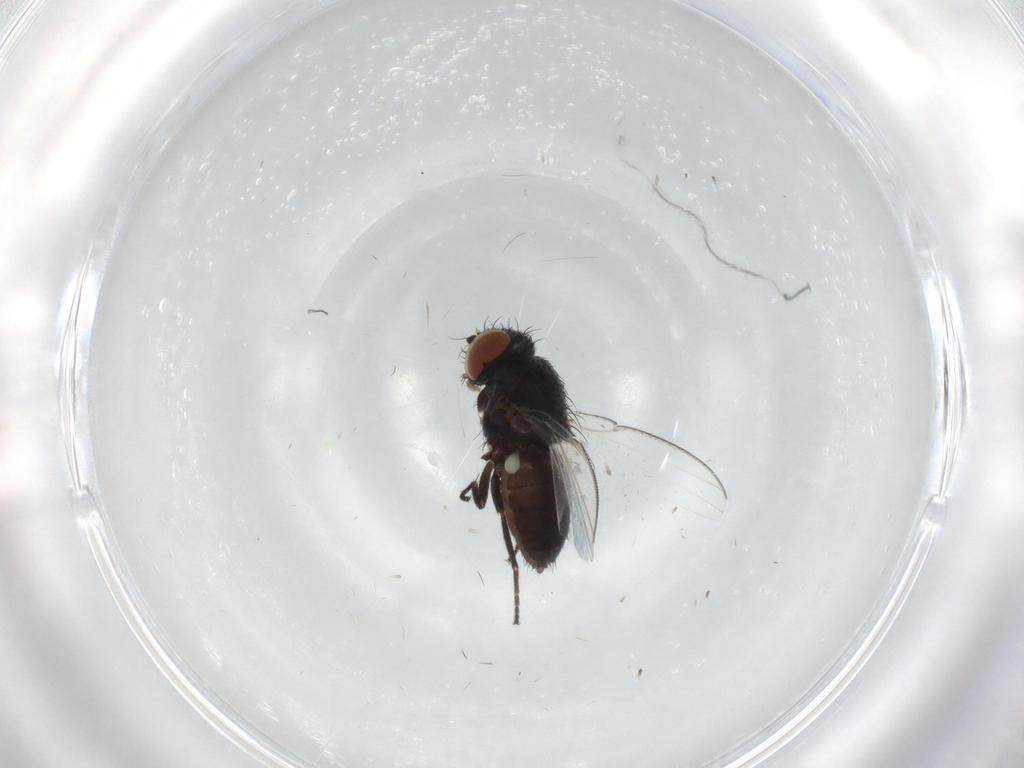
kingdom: Animalia
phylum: Arthropoda
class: Insecta
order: Diptera
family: Milichiidae
